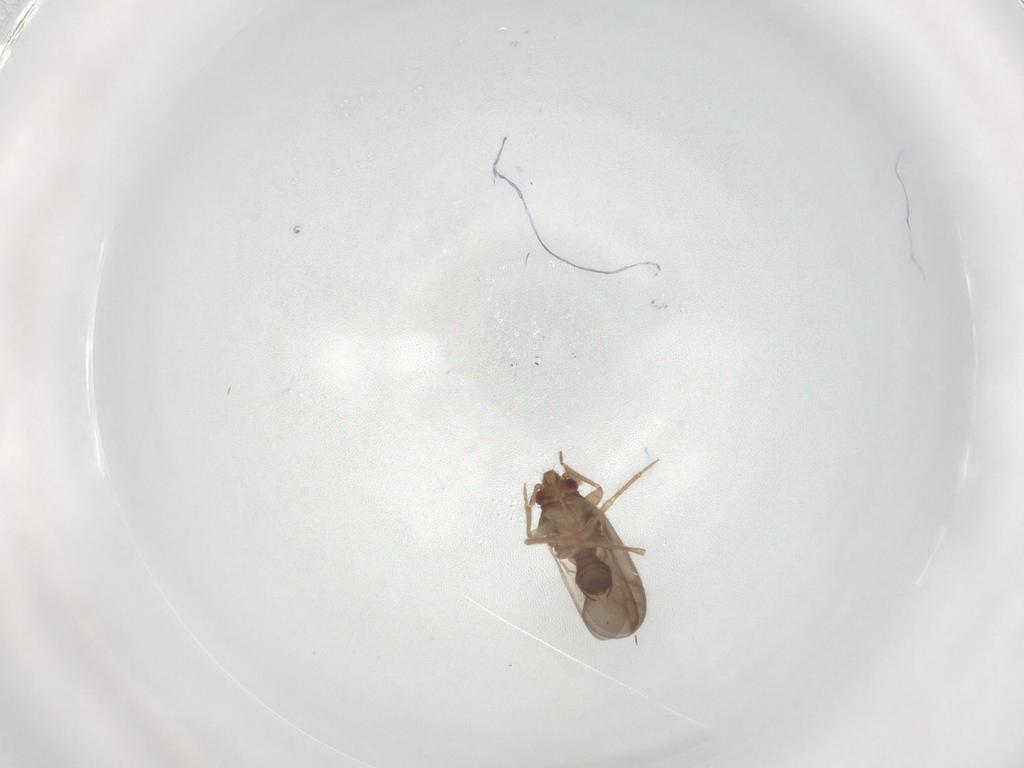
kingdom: Animalia
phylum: Arthropoda
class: Insecta
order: Hemiptera
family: Ceratocombidae
